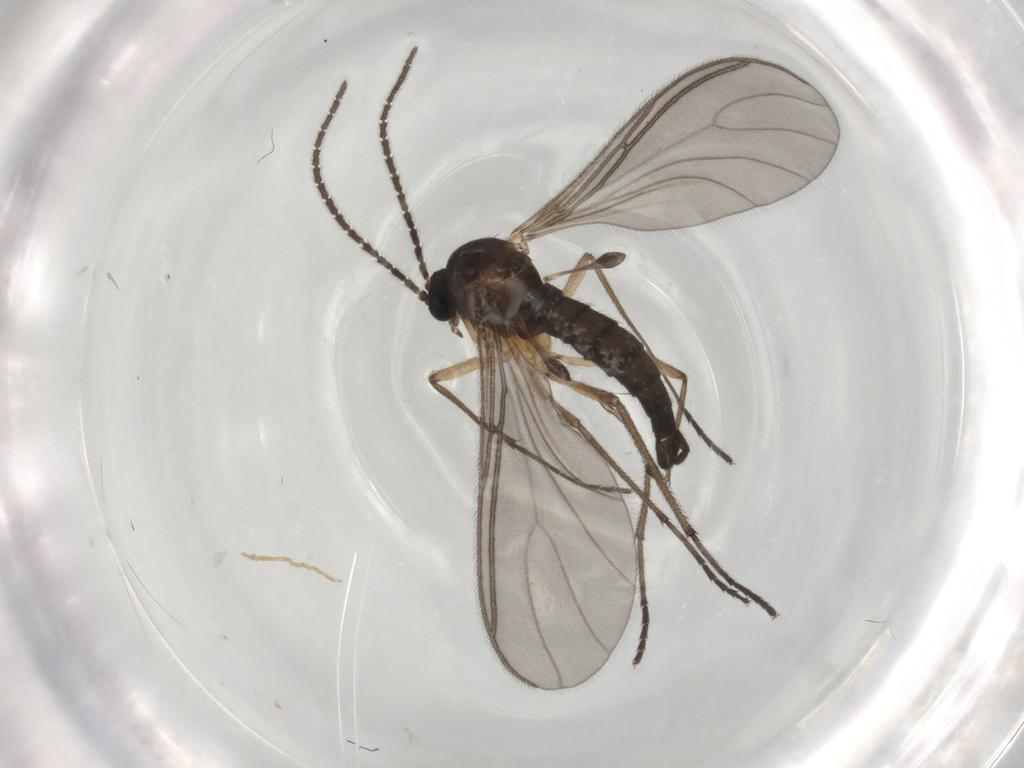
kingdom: Animalia
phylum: Arthropoda
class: Insecta
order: Diptera
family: Sciaridae
